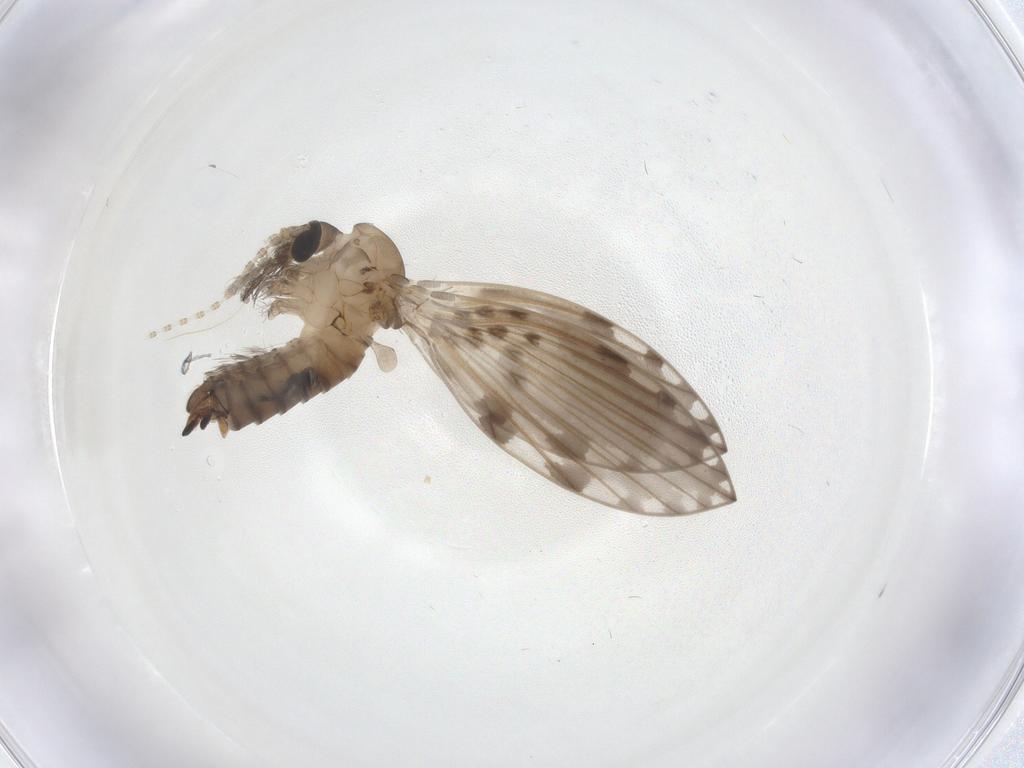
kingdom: Animalia
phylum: Arthropoda
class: Insecta
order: Diptera
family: Psychodidae
